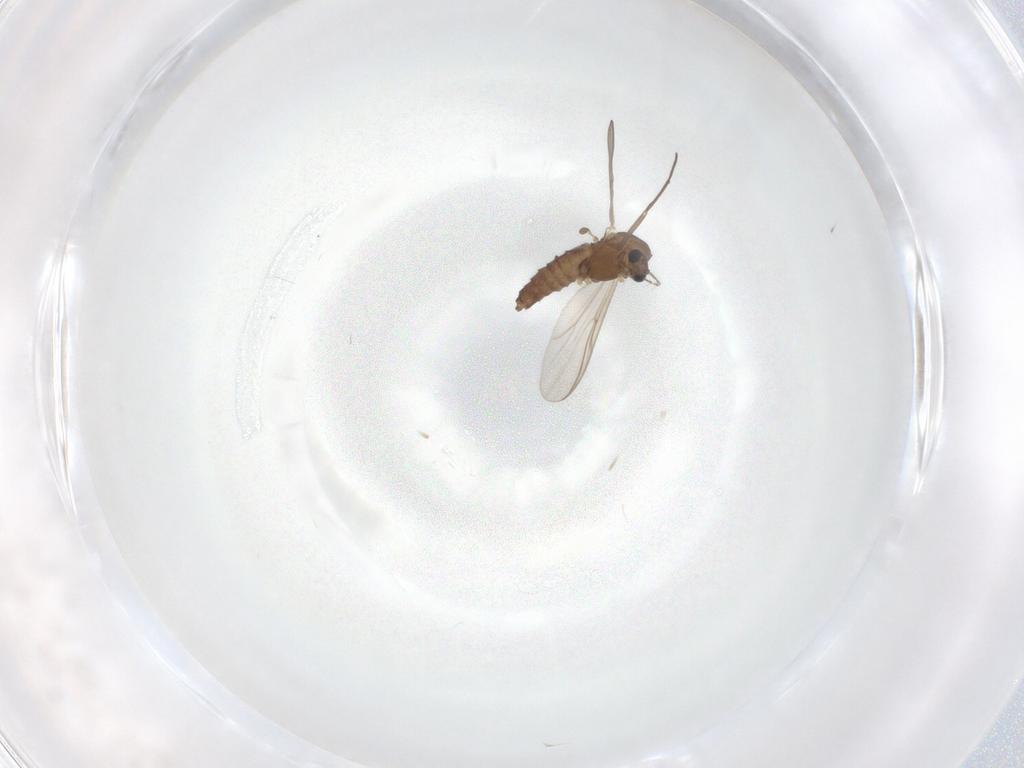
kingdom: Animalia
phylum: Arthropoda
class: Insecta
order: Diptera
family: Chironomidae
